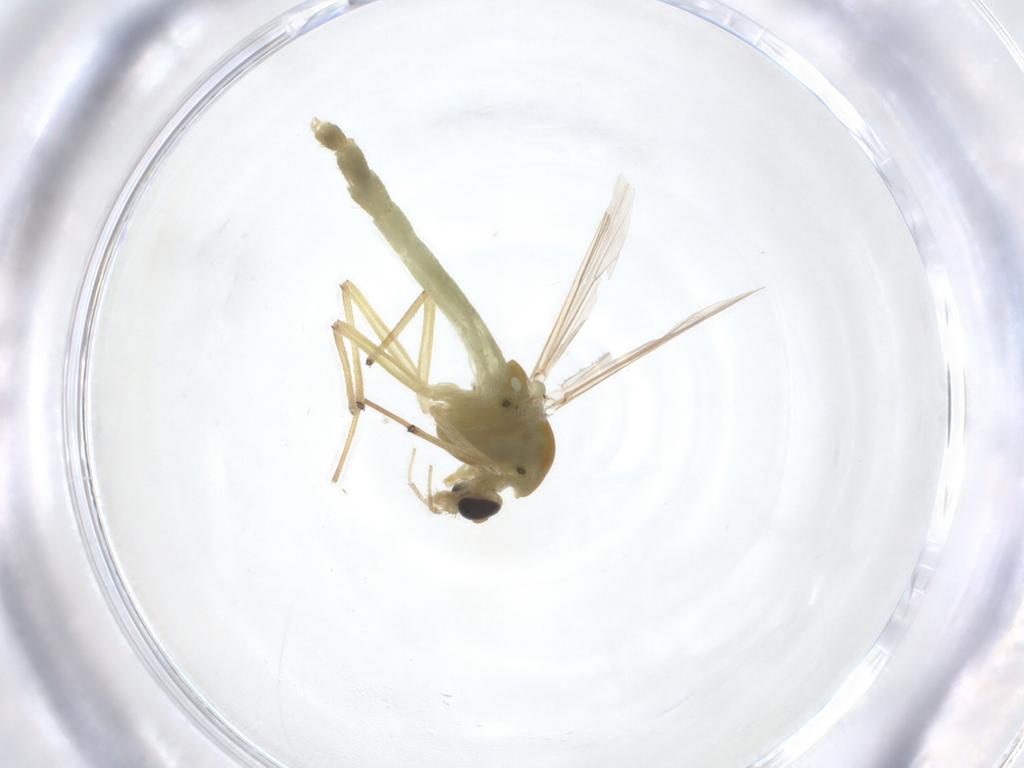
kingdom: Animalia
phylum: Arthropoda
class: Insecta
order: Diptera
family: Chironomidae
